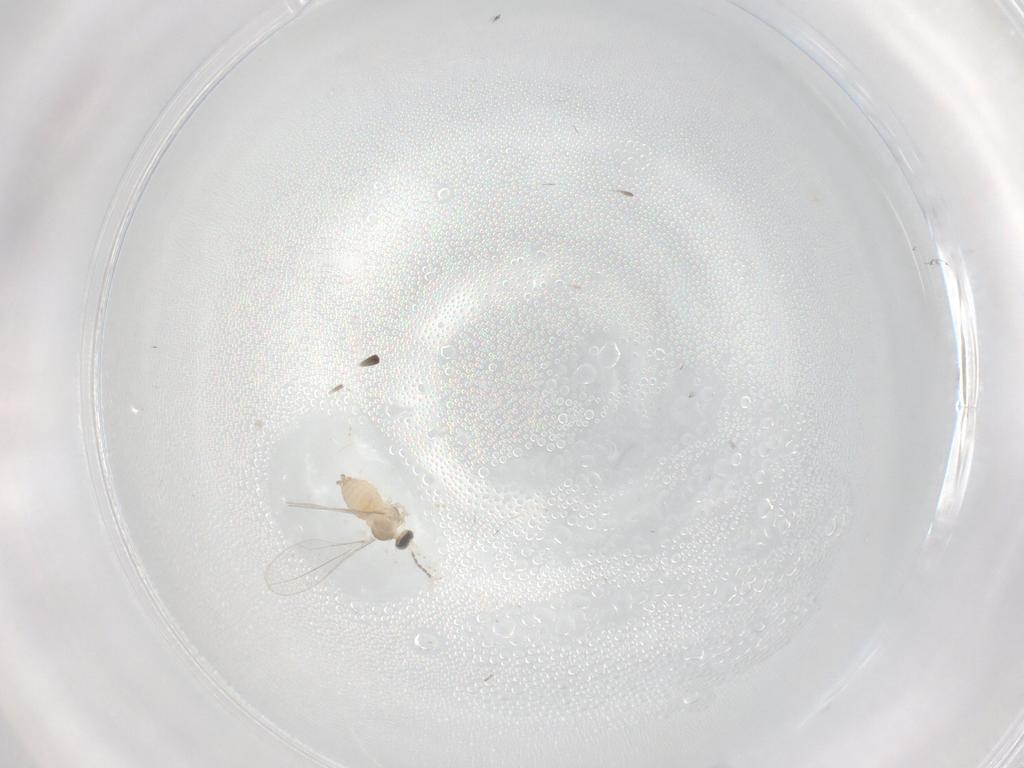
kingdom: Animalia
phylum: Arthropoda
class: Insecta
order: Diptera
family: Cecidomyiidae
